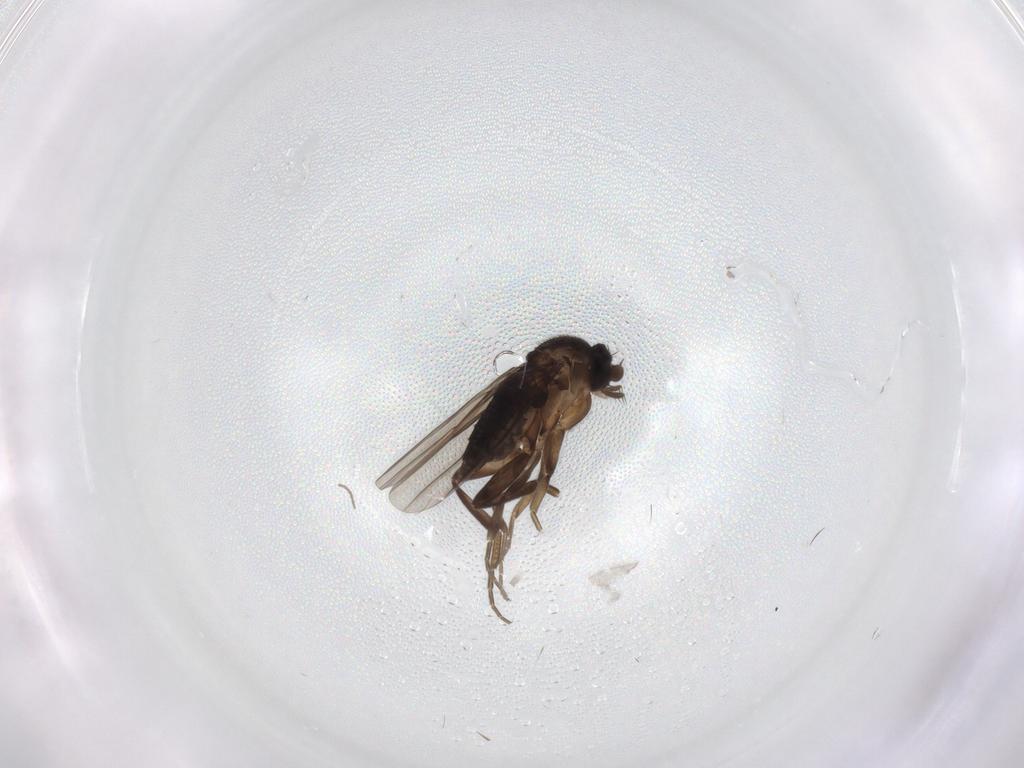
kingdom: Animalia
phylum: Arthropoda
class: Insecta
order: Diptera
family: Phoridae
